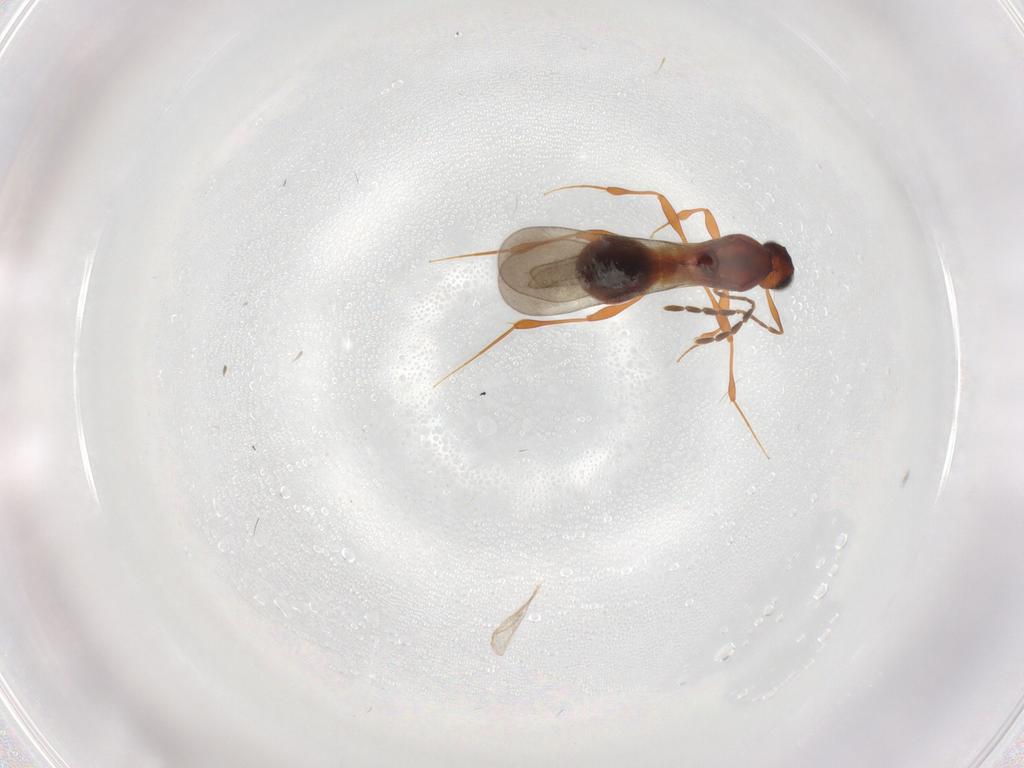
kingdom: Animalia
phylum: Arthropoda
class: Insecta
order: Hymenoptera
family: Platygastridae
